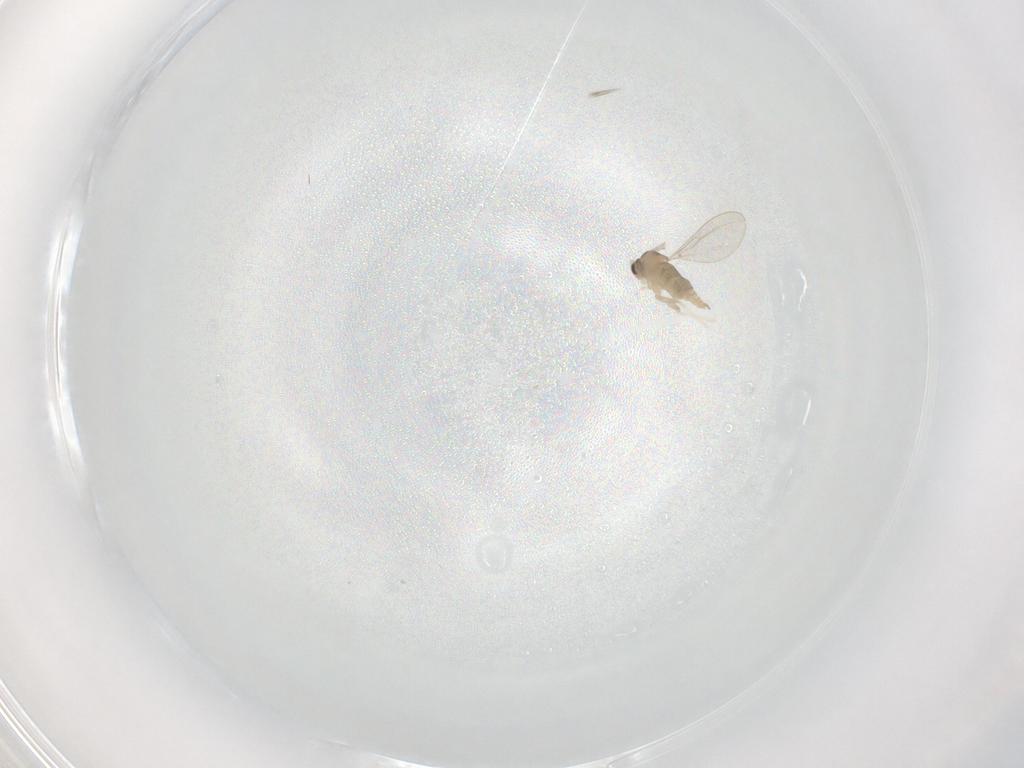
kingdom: Animalia
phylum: Arthropoda
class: Insecta
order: Diptera
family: Cecidomyiidae
